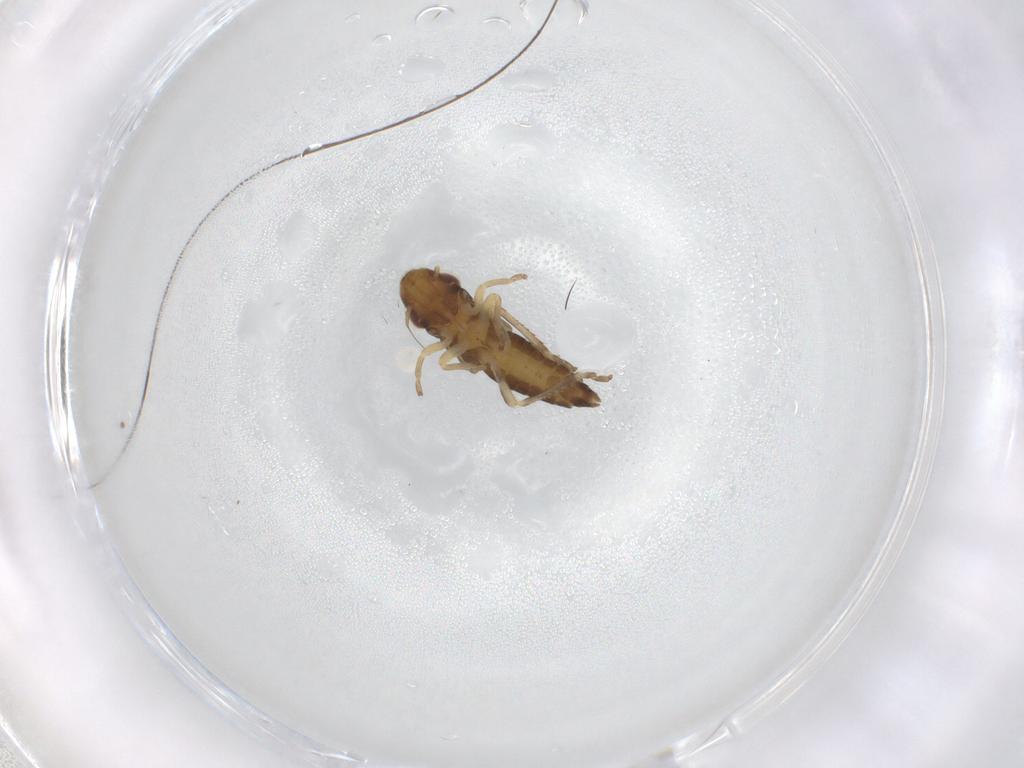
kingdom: Animalia
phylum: Arthropoda
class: Insecta
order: Hemiptera
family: Cicadellidae
